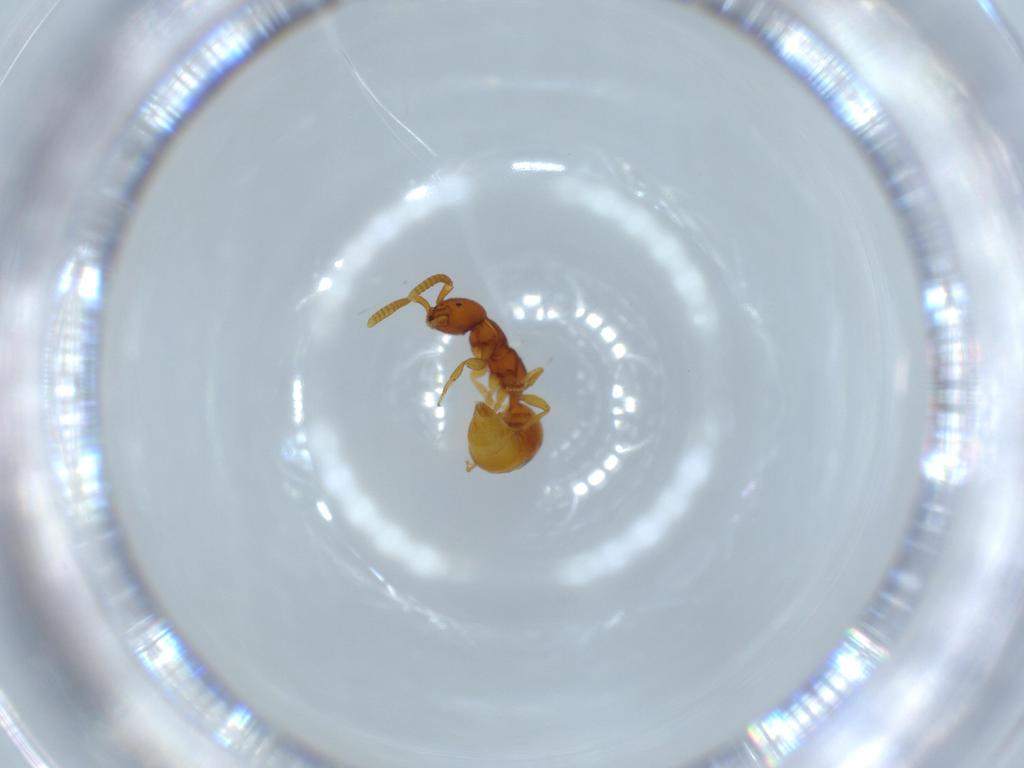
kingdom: Animalia
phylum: Arthropoda
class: Insecta
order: Hymenoptera
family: Bethylidae
